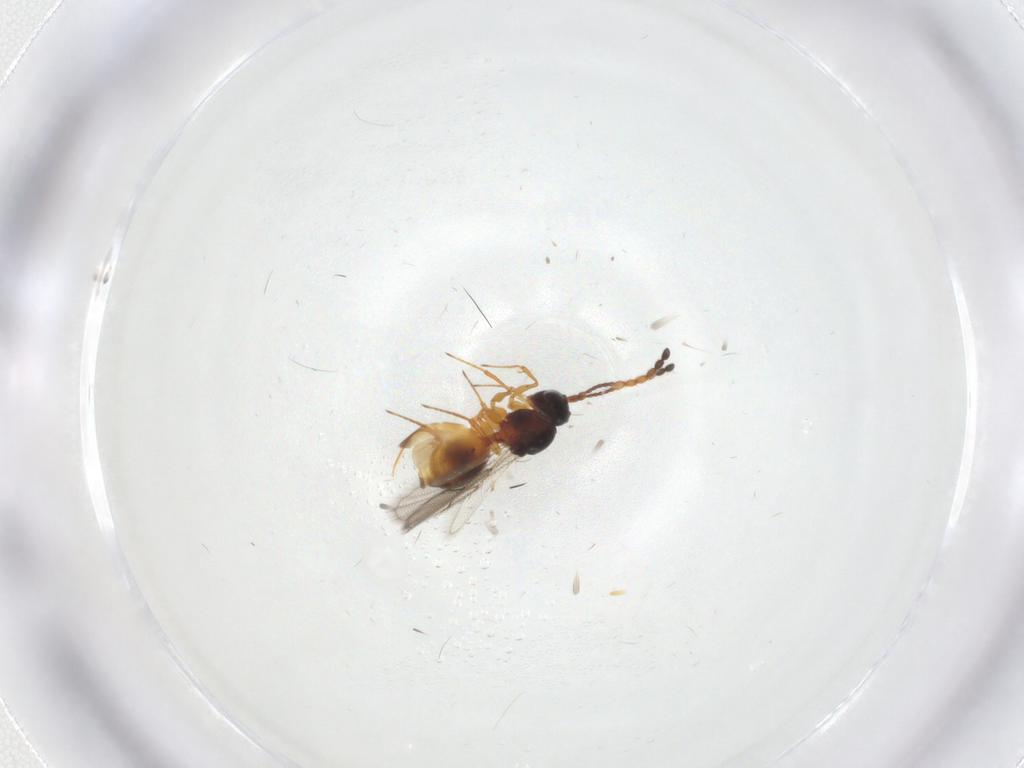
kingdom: Animalia
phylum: Arthropoda
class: Insecta
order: Hymenoptera
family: Figitidae
